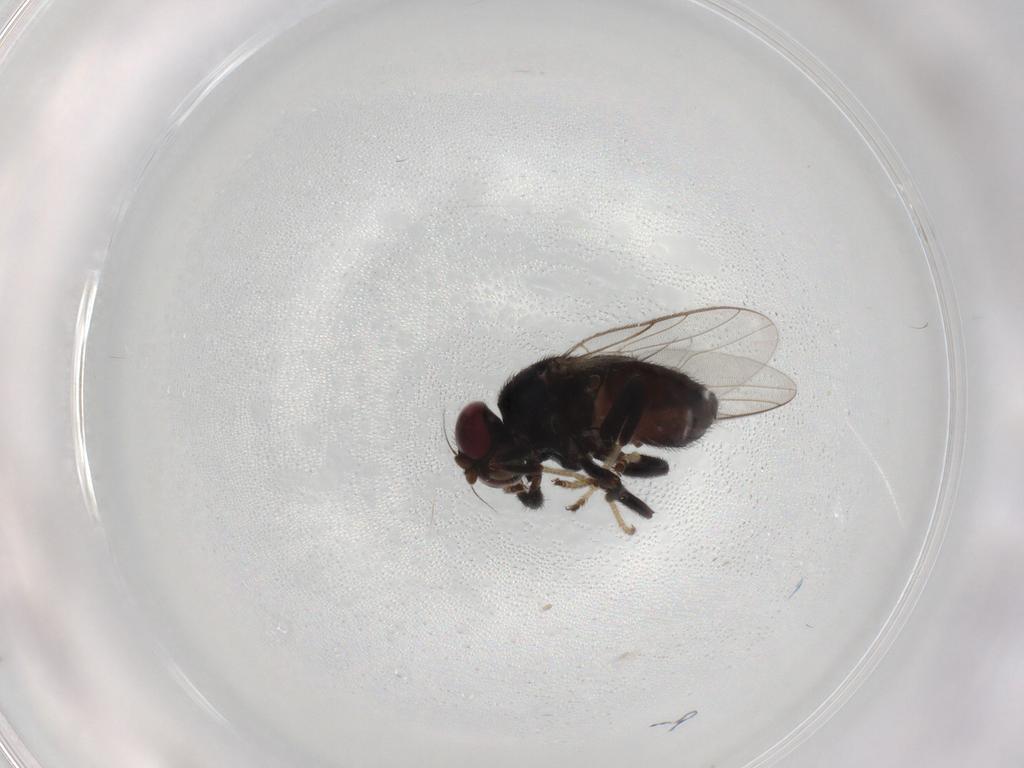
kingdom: Animalia
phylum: Arthropoda
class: Insecta
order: Diptera
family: Chloropidae
